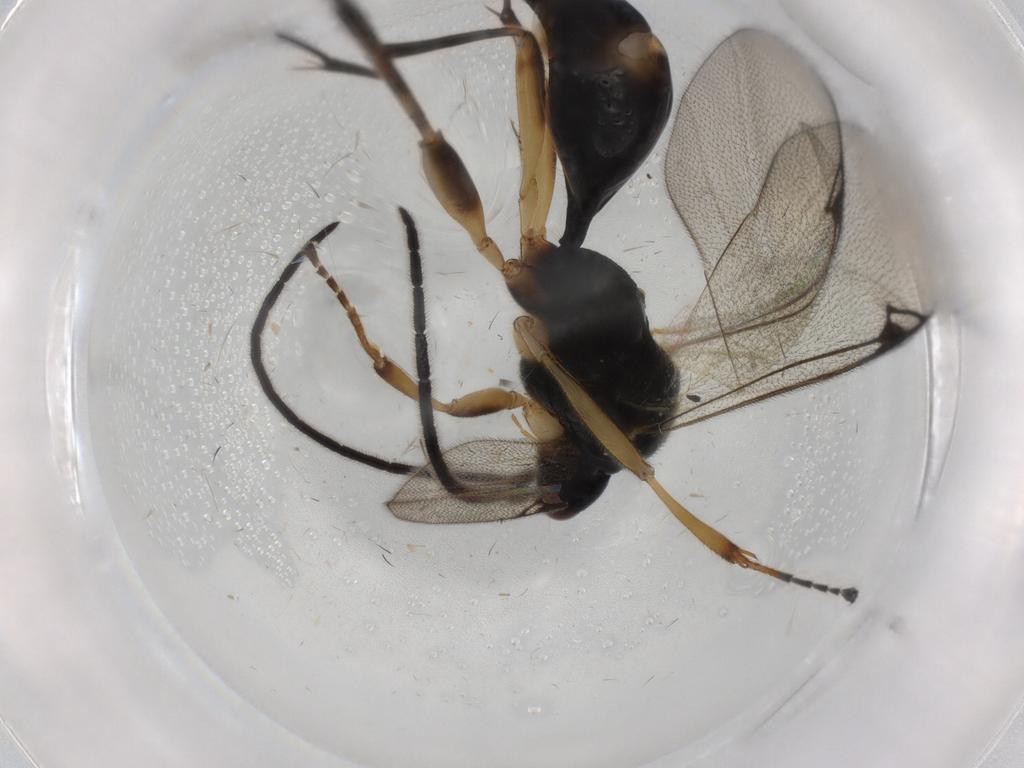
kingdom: Animalia
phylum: Arthropoda
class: Insecta
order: Hymenoptera
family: Proctotrupidae
